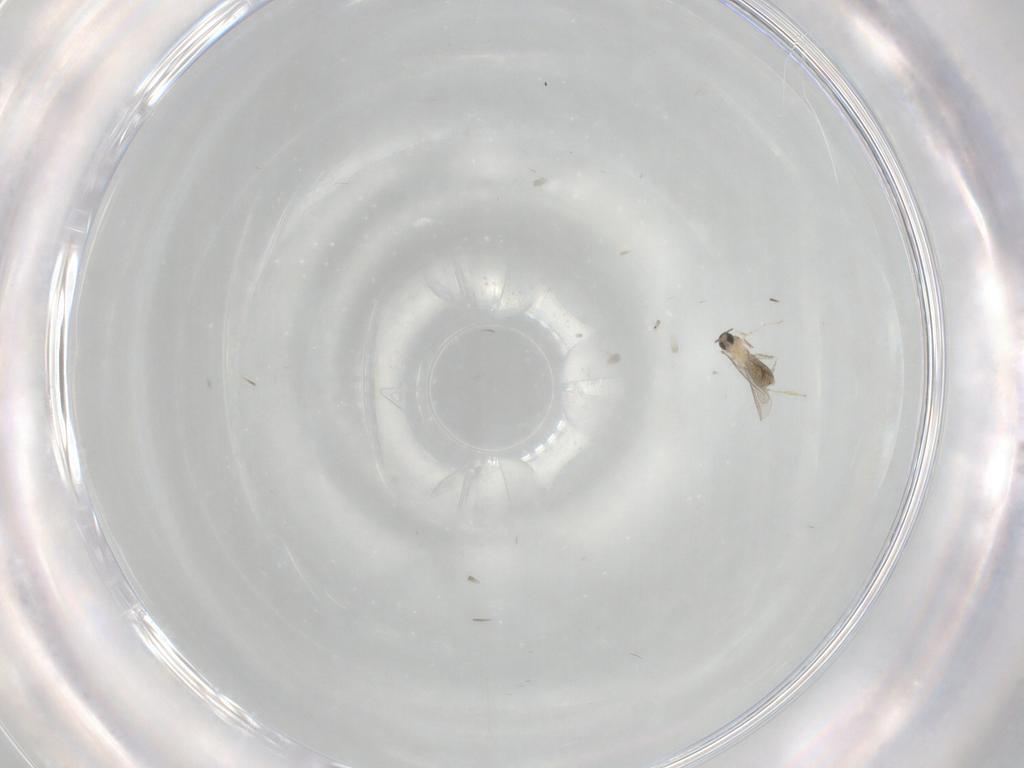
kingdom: Animalia
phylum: Arthropoda
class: Insecta
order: Diptera
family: Cecidomyiidae
